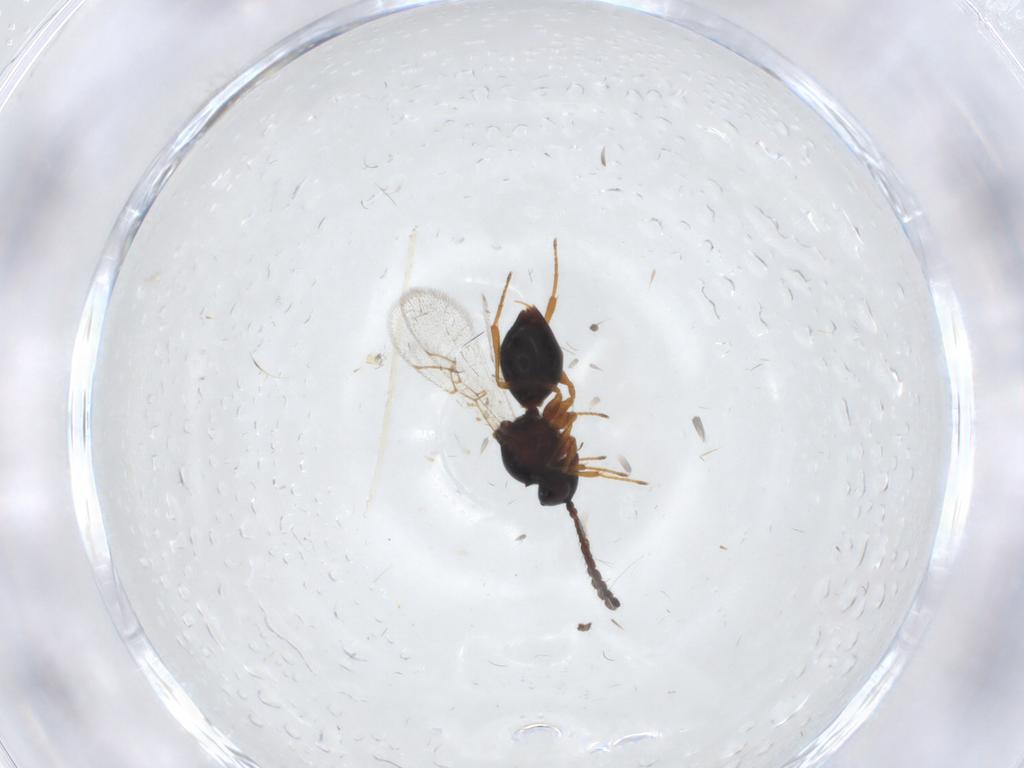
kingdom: Animalia
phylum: Arthropoda
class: Insecta
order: Hymenoptera
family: Figitidae
